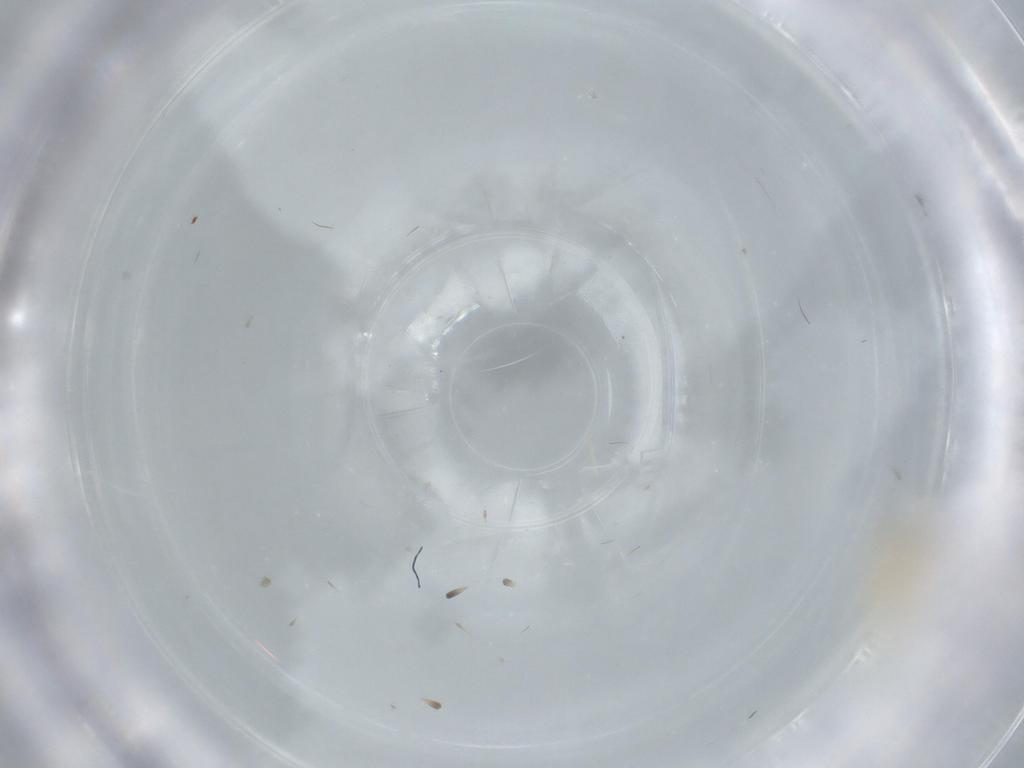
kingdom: Animalia
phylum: Arthropoda
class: Insecta
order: Diptera
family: Cecidomyiidae
